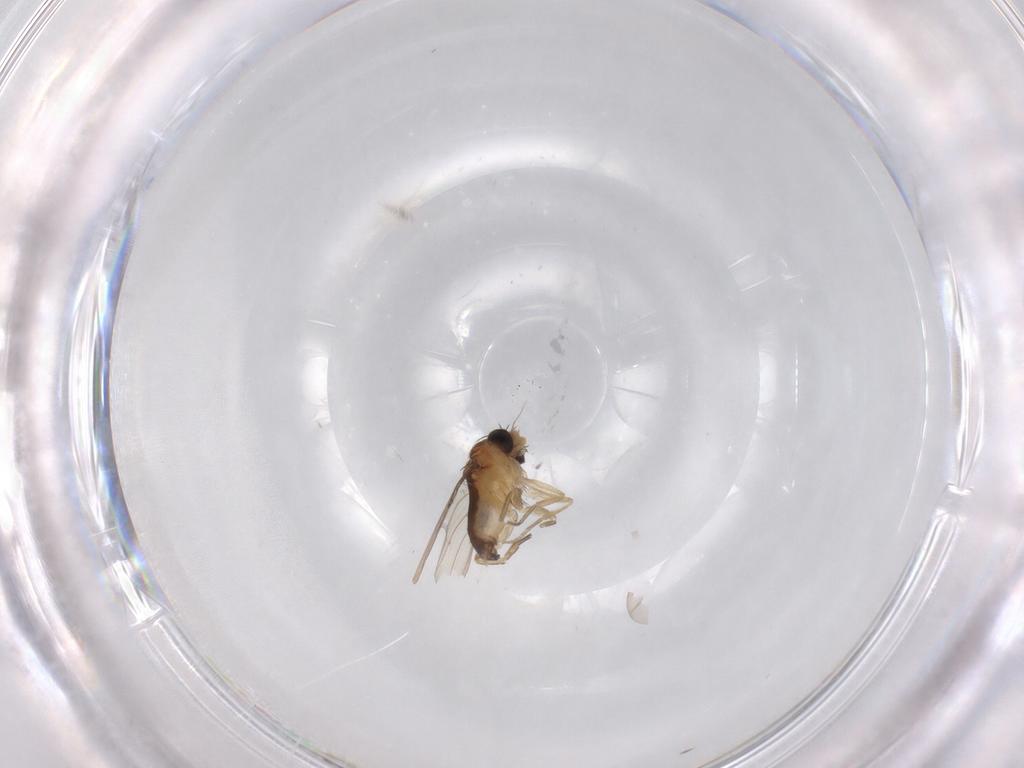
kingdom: Animalia
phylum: Arthropoda
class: Insecta
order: Diptera
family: Phoridae
